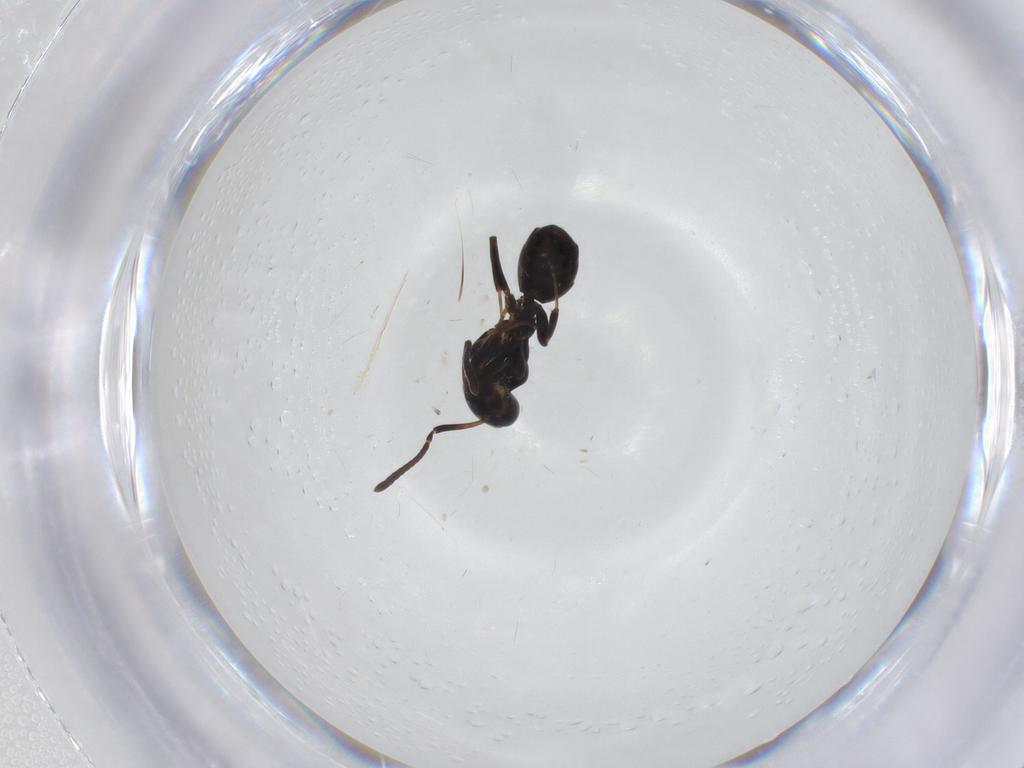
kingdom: Animalia
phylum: Arthropoda
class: Insecta
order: Hymenoptera
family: Formicidae
